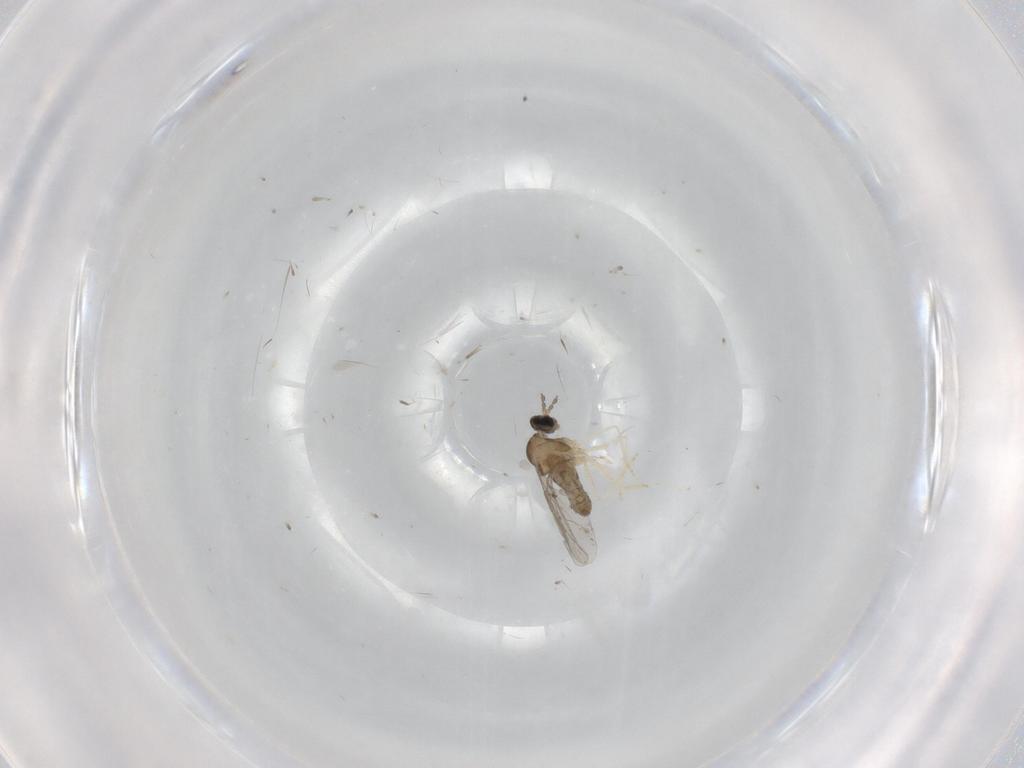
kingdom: Animalia
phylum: Arthropoda
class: Insecta
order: Diptera
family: Cecidomyiidae
